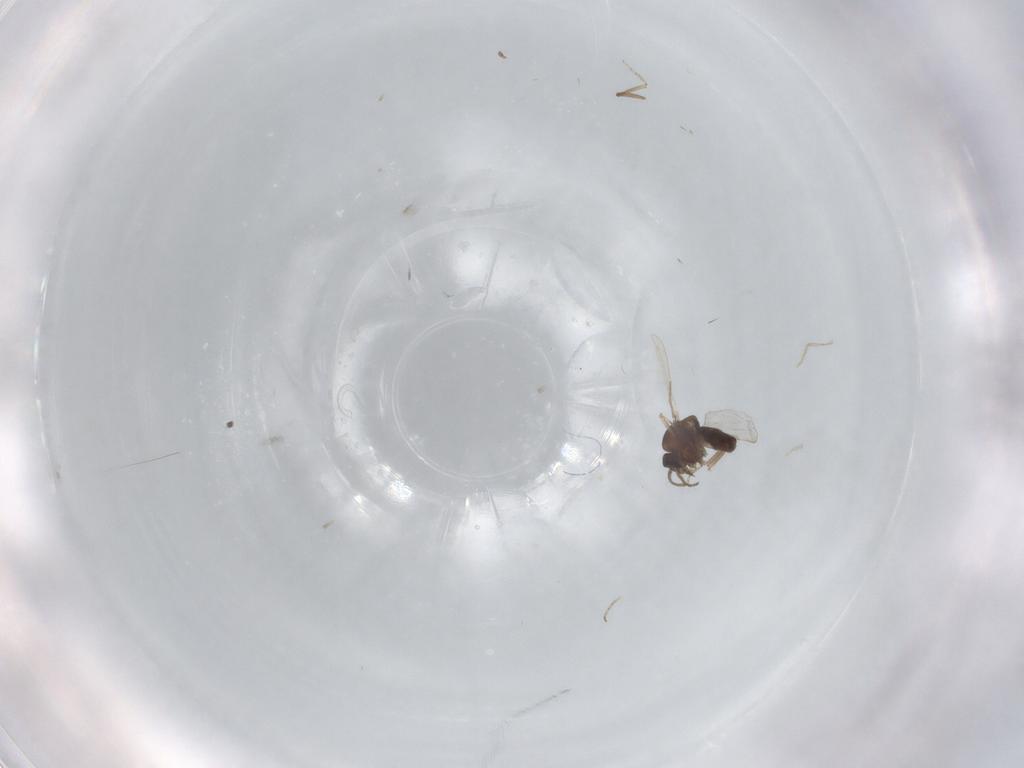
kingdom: Animalia
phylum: Arthropoda
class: Insecta
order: Diptera
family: Ceratopogonidae
